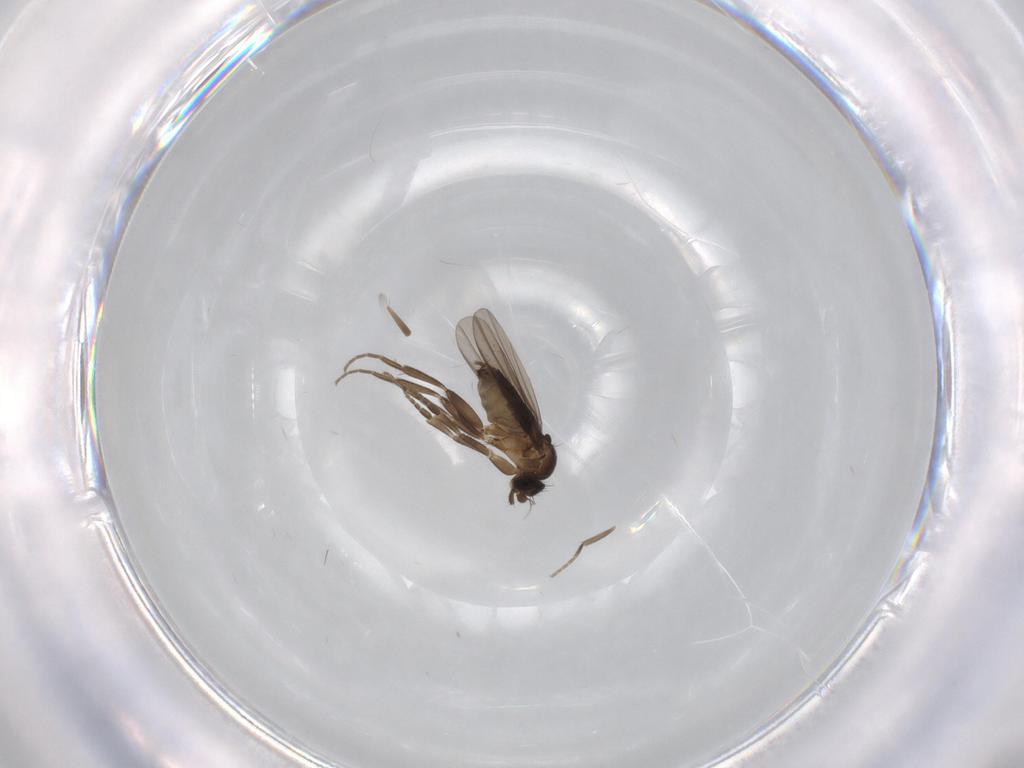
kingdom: Animalia
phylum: Arthropoda
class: Insecta
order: Diptera
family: Phoridae
